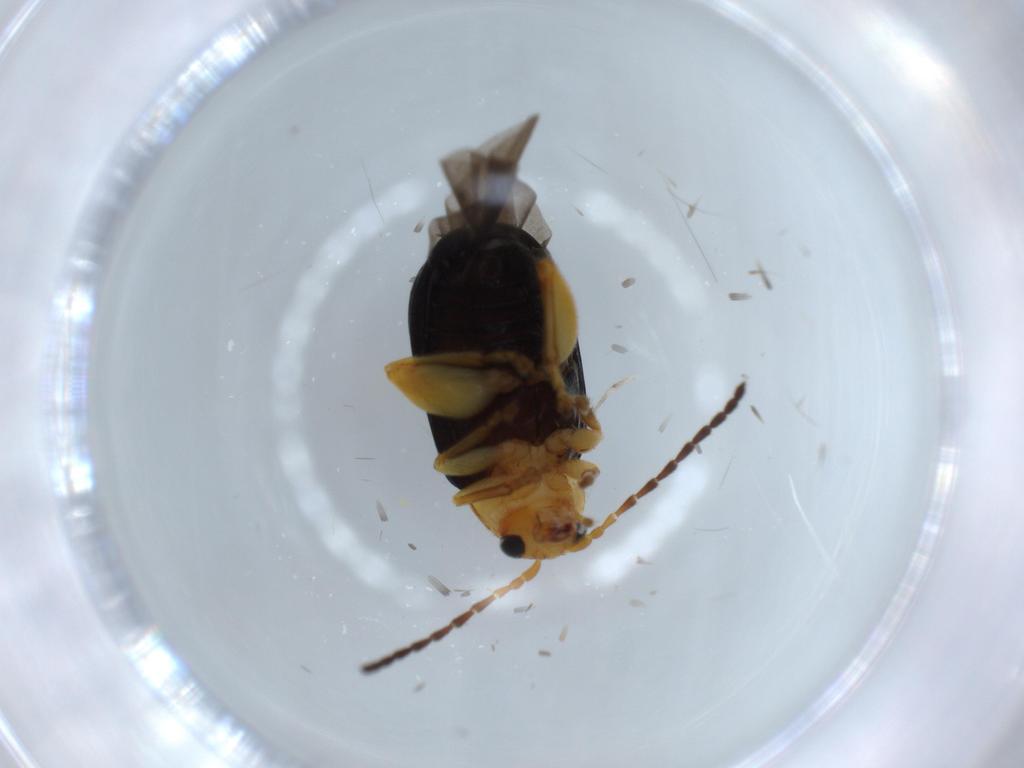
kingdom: Animalia
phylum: Arthropoda
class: Insecta
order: Coleoptera
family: Chrysomelidae
